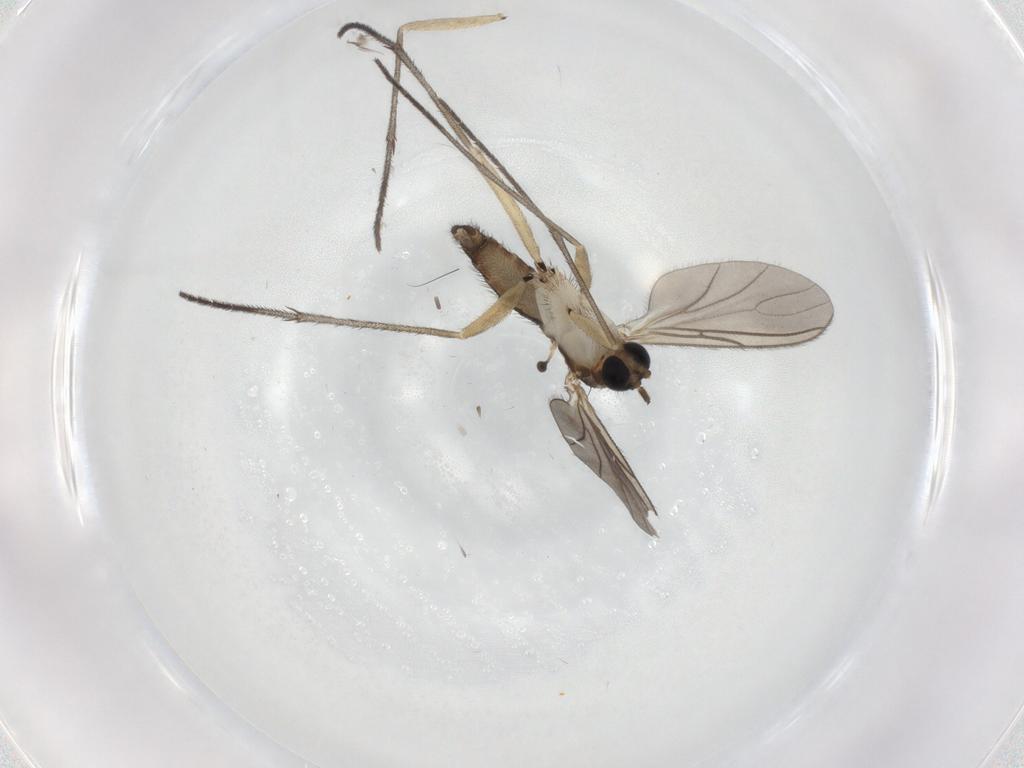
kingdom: Animalia
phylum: Arthropoda
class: Insecta
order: Diptera
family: Sciaridae
